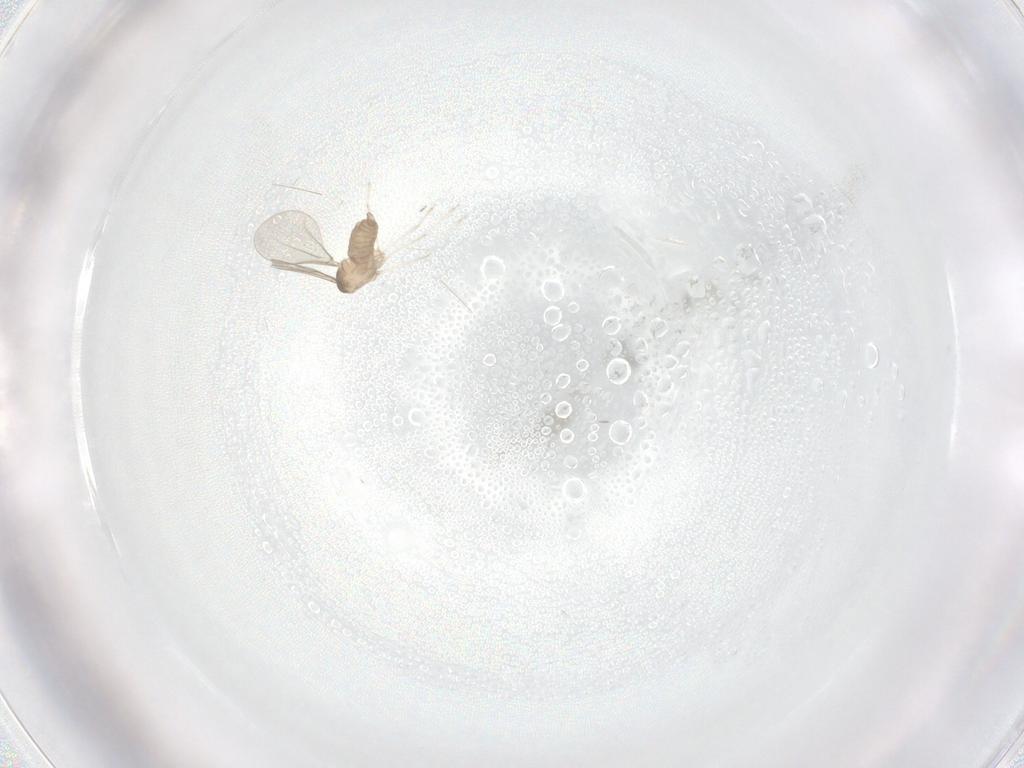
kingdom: Animalia
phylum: Arthropoda
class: Insecta
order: Diptera
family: Cecidomyiidae
